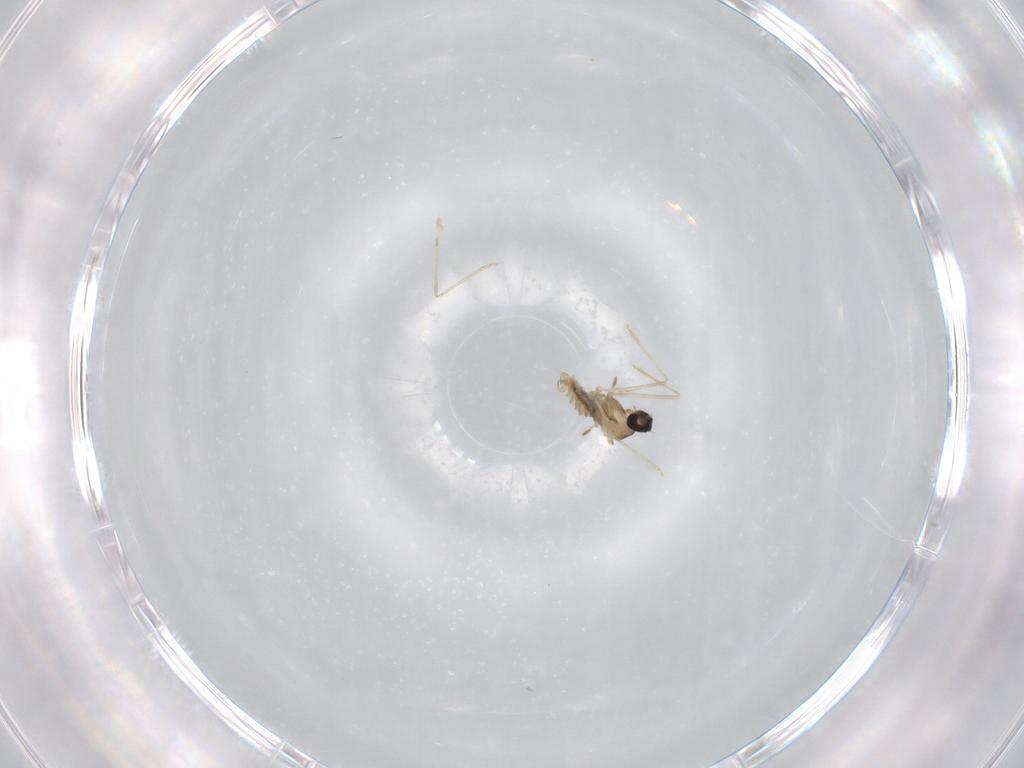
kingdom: Animalia
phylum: Arthropoda
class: Insecta
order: Diptera
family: Cecidomyiidae
